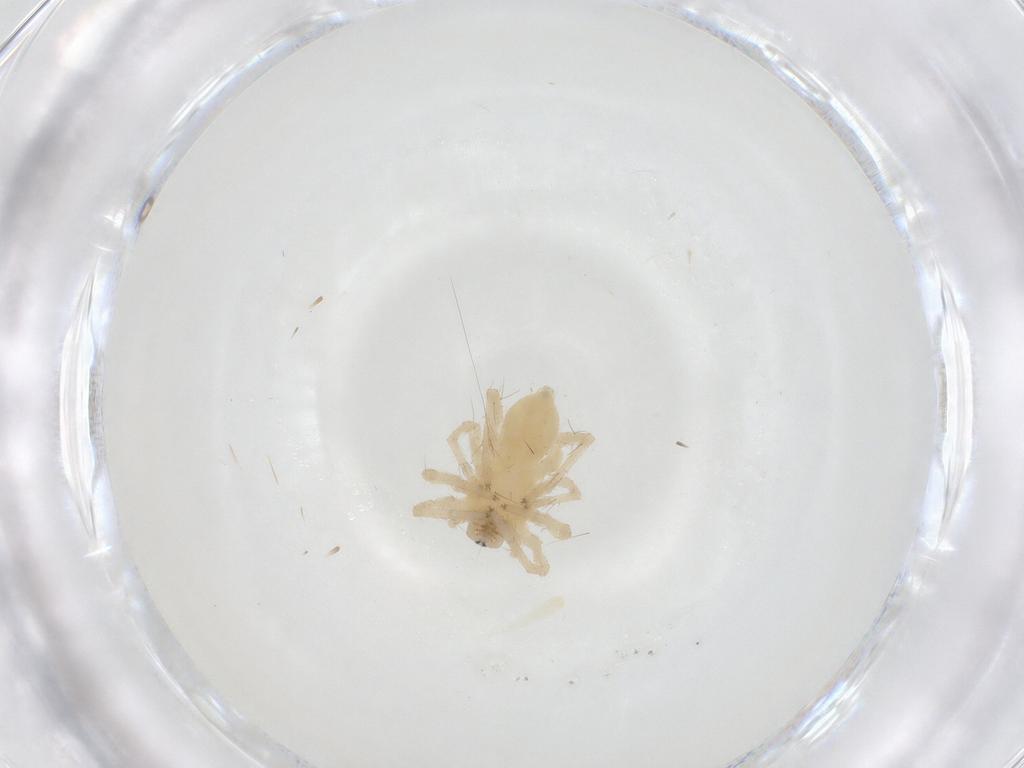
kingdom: Animalia
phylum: Arthropoda
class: Arachnida
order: Araneae
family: Anyphaenidae
